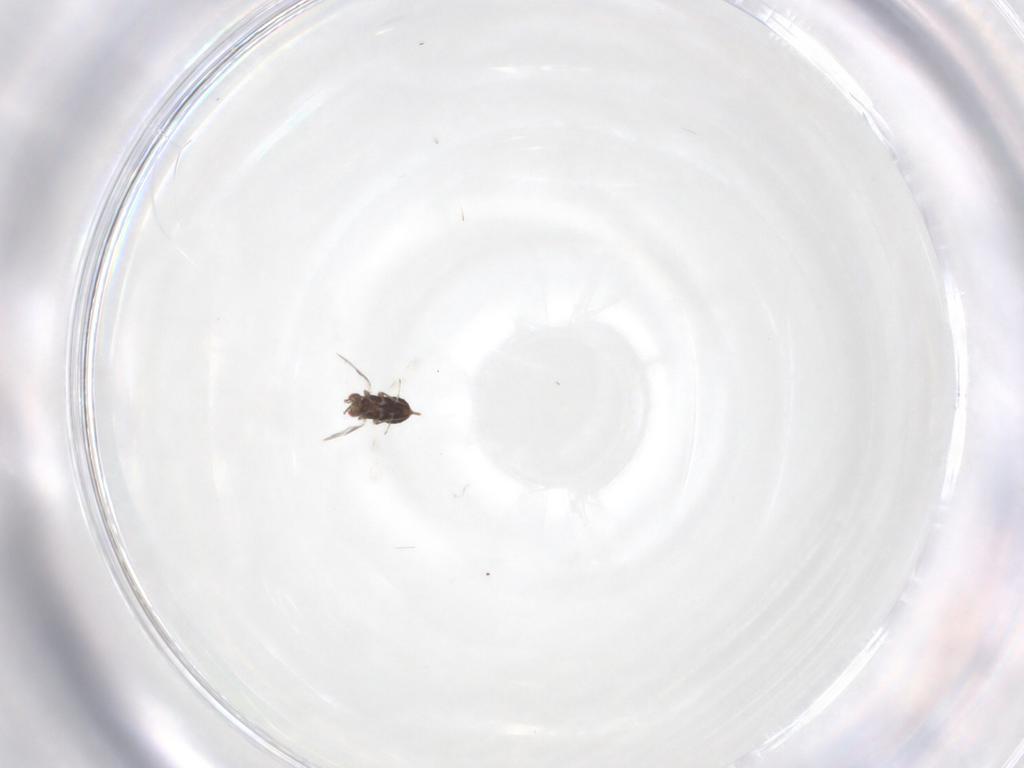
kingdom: Animalia
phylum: Arthropoda
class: Insecta
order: Hymenoptera
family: Azotidae
